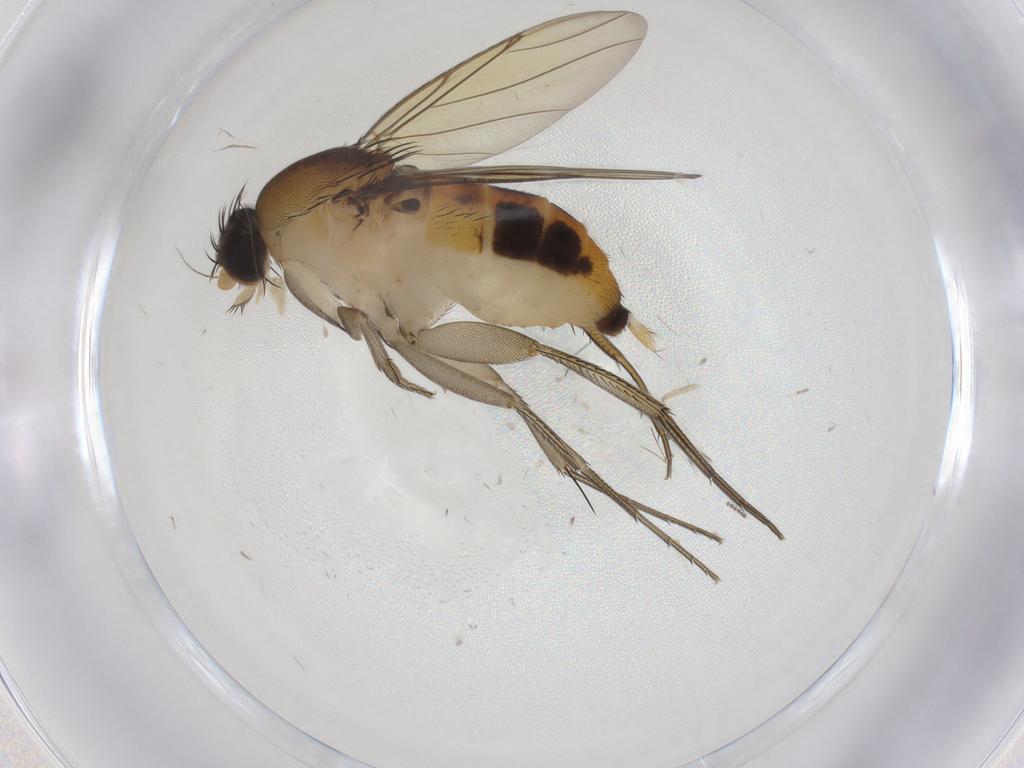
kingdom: Animalia
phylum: Arthropoda
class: Insecta
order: Diptera
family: Phoridae
